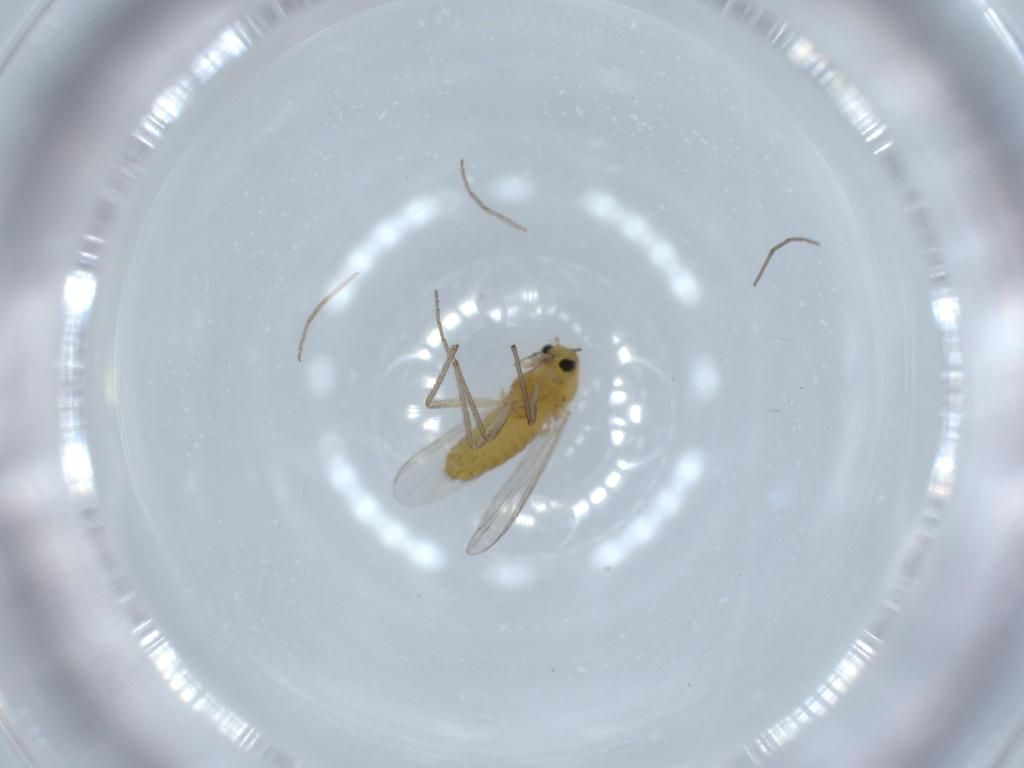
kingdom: Animalia
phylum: Arthropoda
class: Insecta
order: Diptera
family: Chironomidae
